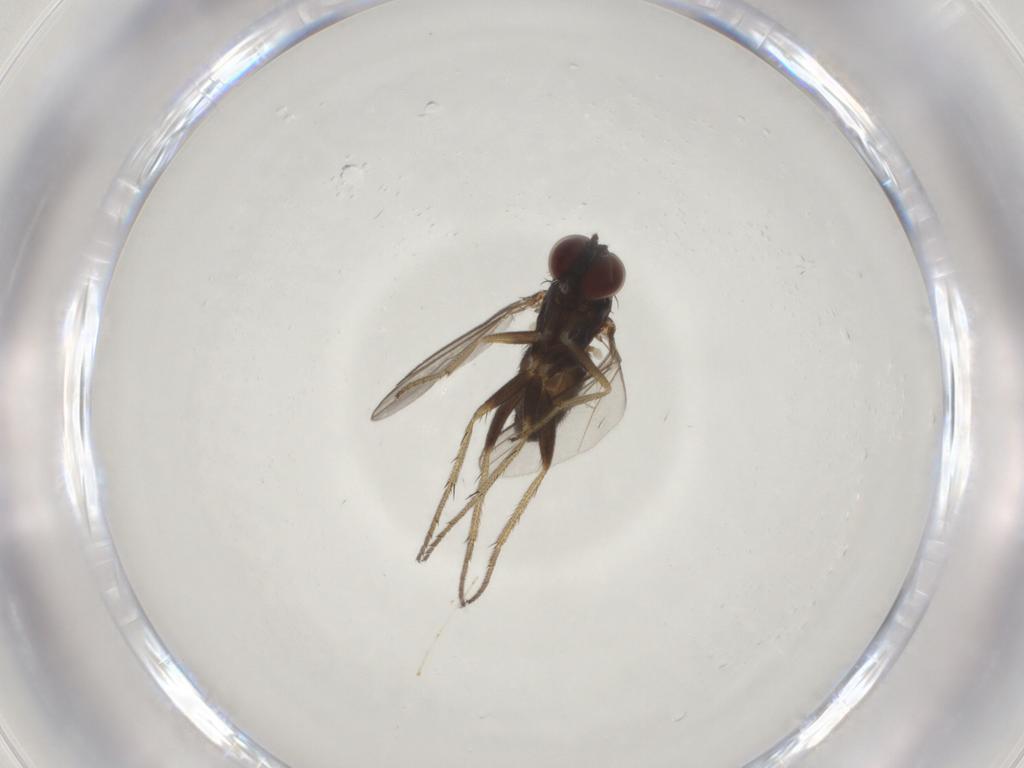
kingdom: Animalia
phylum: Arthropoda
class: Insecta
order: Diptera
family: Dolichopodidae
